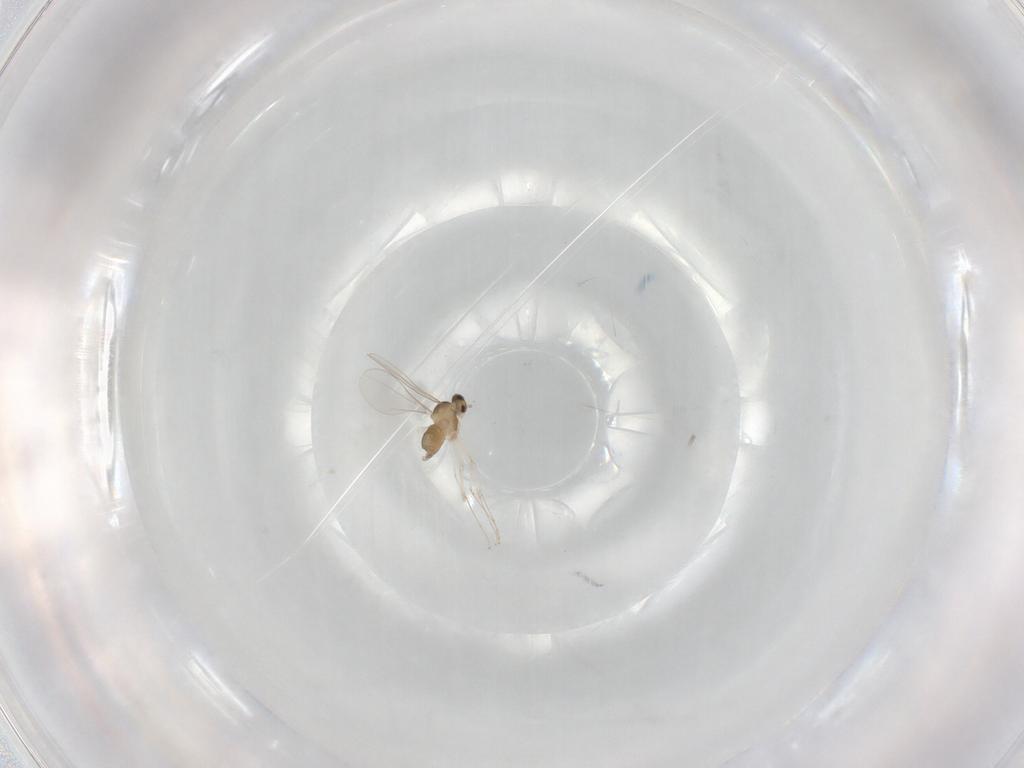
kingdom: Animalia
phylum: Arthropoda
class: Insecta
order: Diptera
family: Cecidomyiidae
